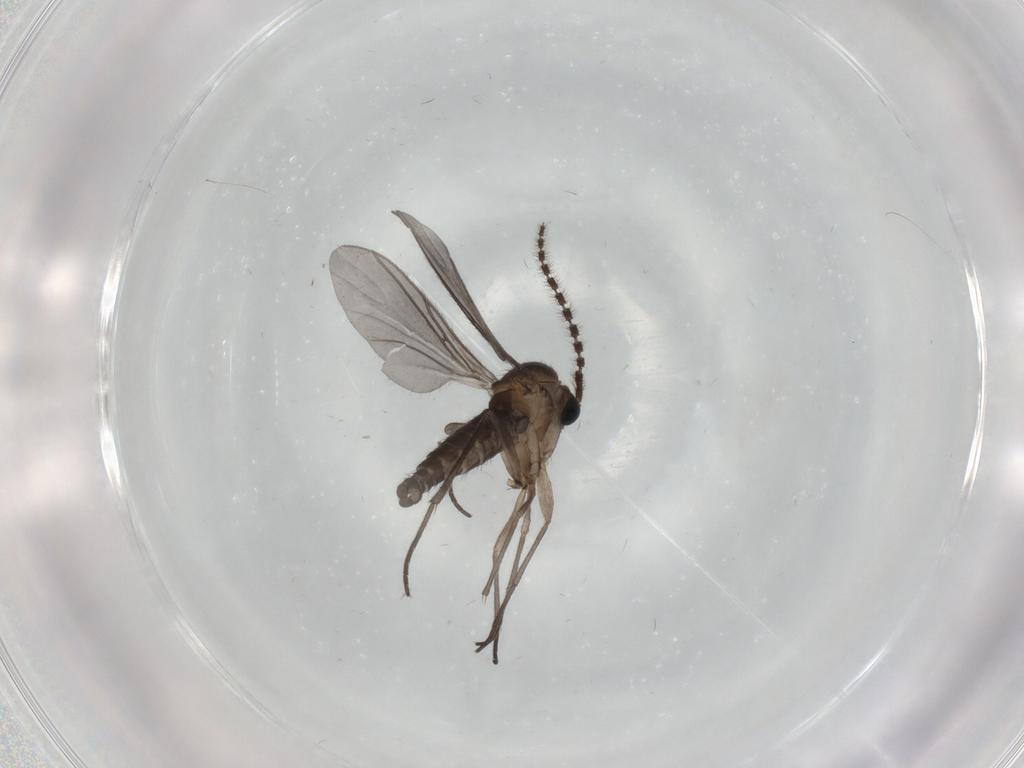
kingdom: Animalia
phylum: Arthropoda
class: Insecta
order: Diptera
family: Sciaridae
